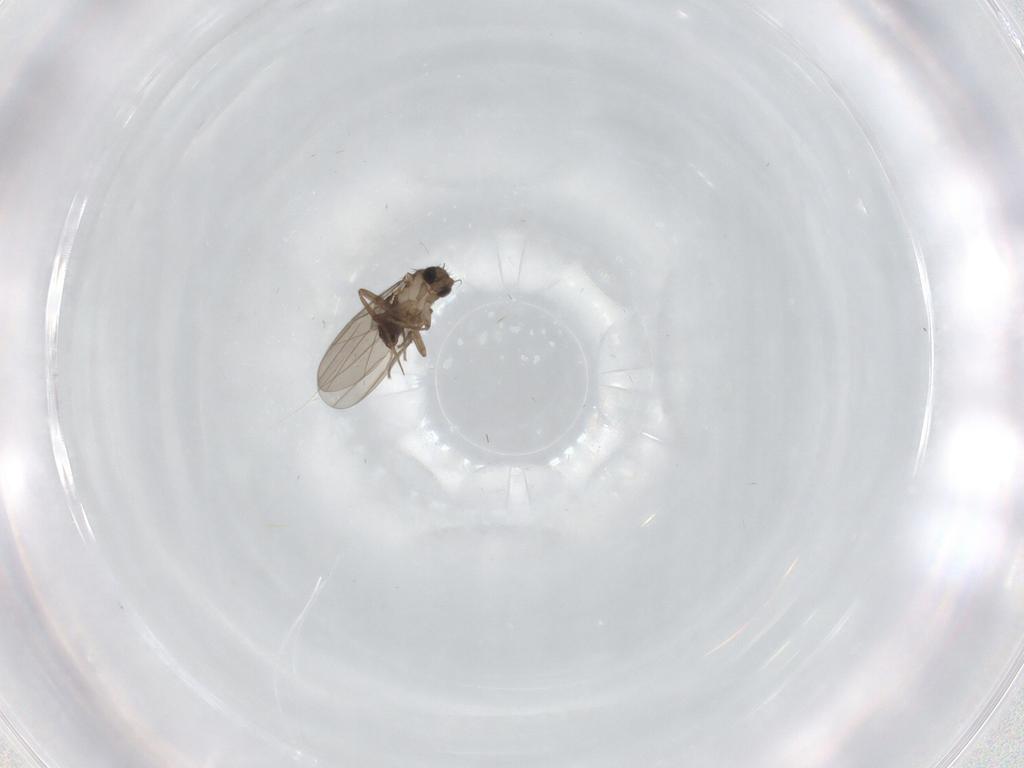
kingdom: Animalia
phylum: Arthropoda
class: Insecta
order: Diptera
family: Phoridae
